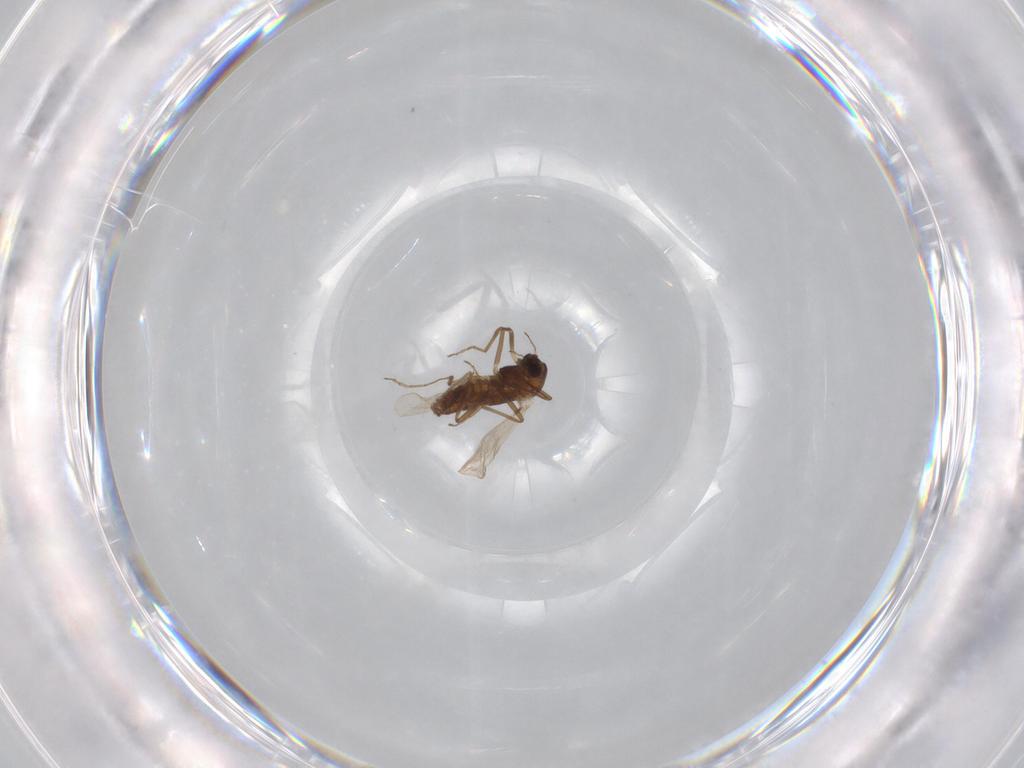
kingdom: Animalia
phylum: Arthropoda
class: Insecta
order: Diptera
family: Chironomidae
